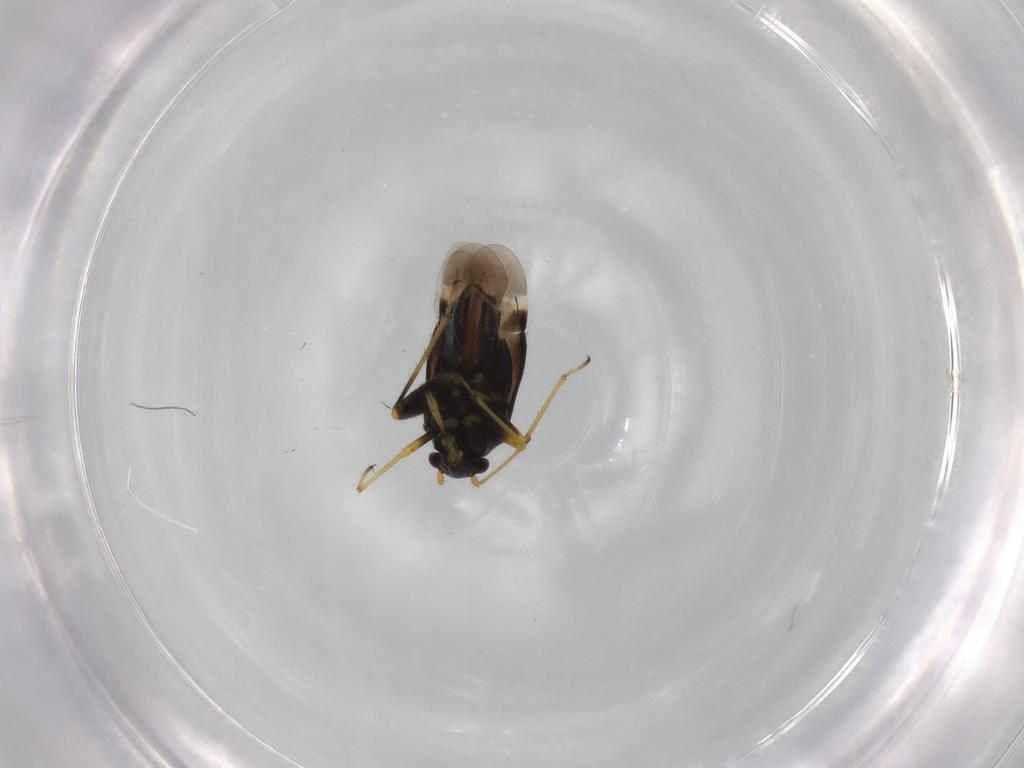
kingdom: Animalia
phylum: Arthropoda
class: Insecta
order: Hemiptera
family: Miridae
